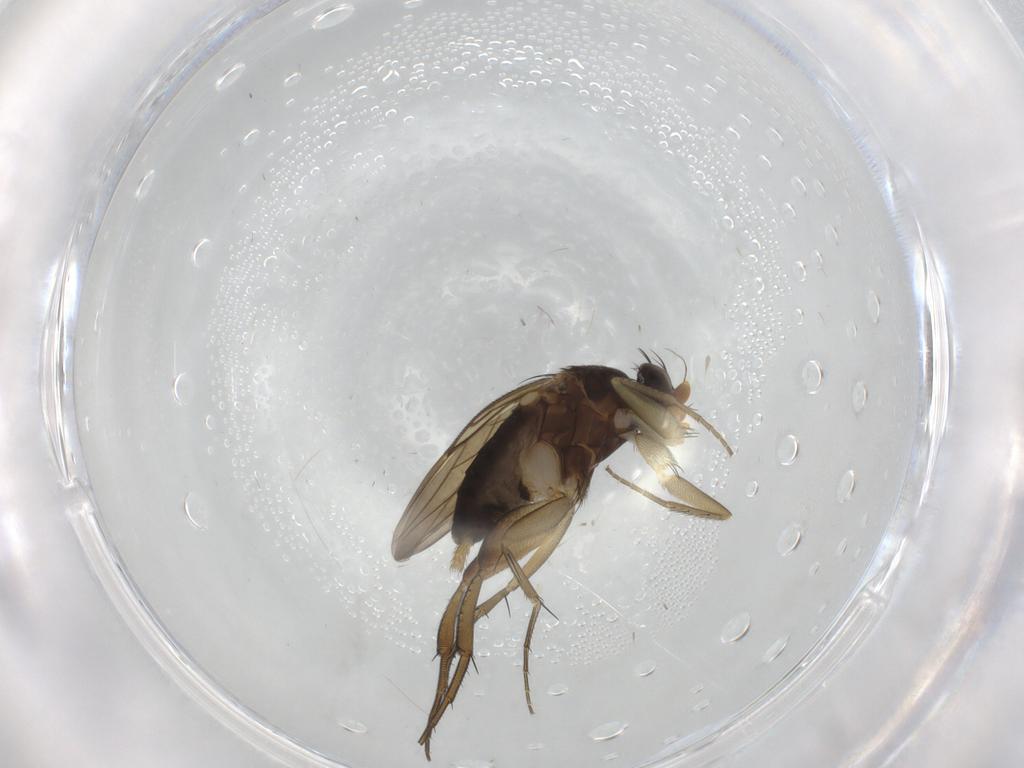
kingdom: Animalia
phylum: Arthropoda
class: Insecta
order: Diptera
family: Phoridae
